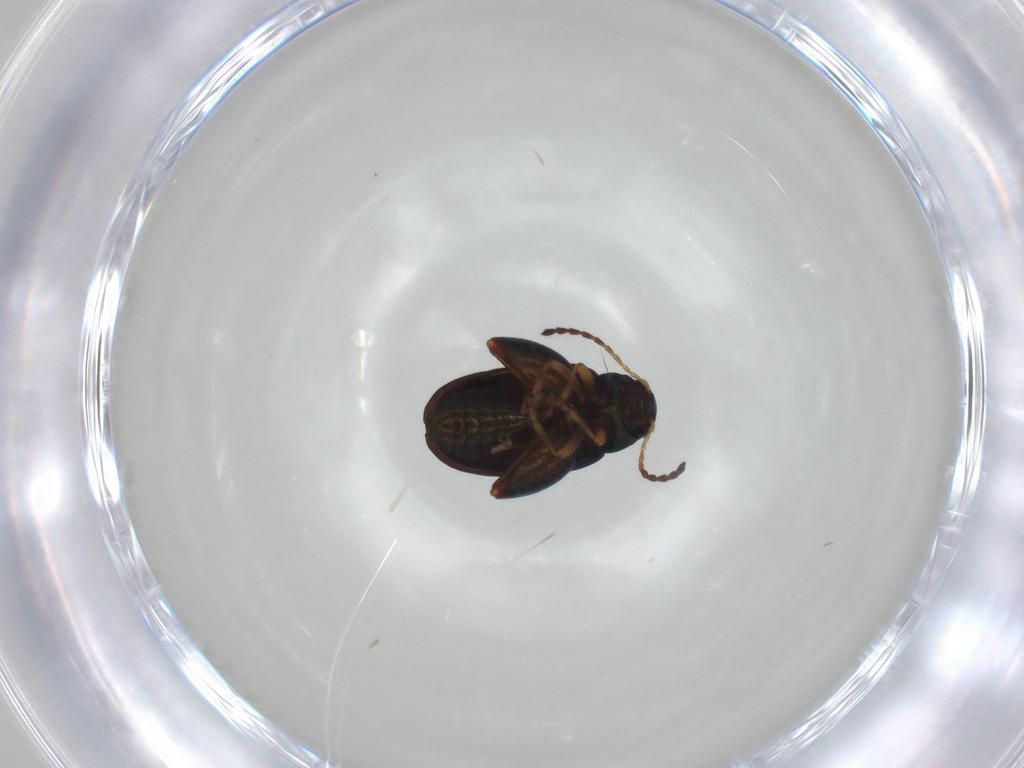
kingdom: Animalia
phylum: Arthropoda
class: Insecta
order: Coleoptera
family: Chrysomelidae
